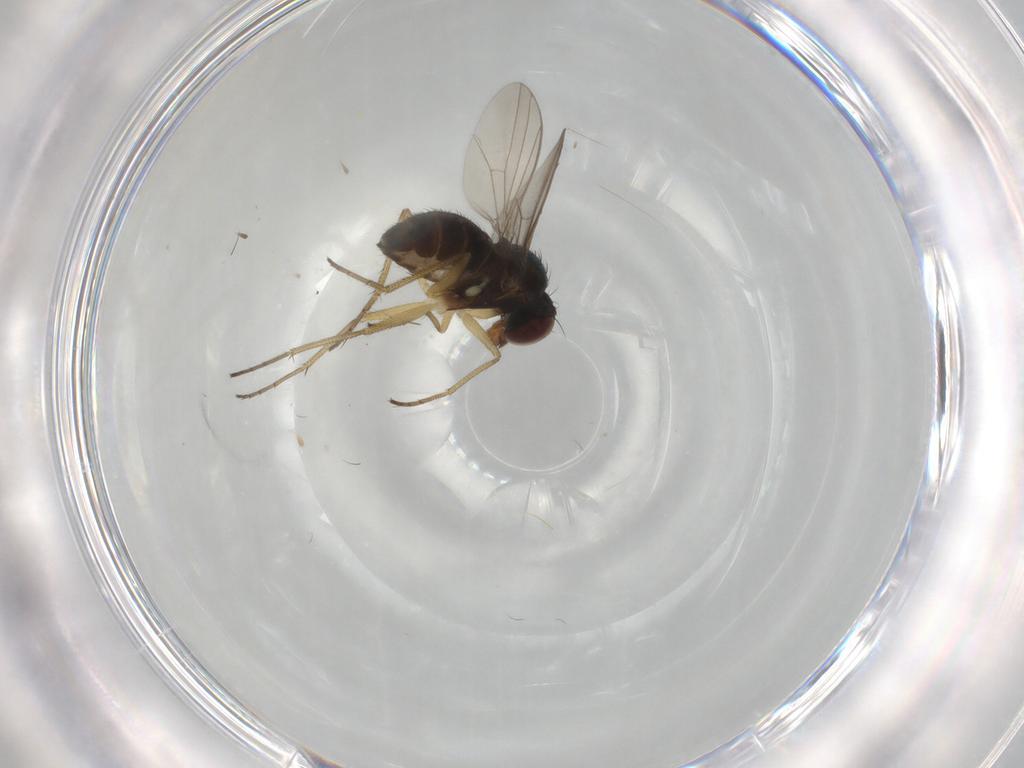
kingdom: Animalia
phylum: Arthropoda
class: Insecta
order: Diptera
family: Dolichopodidae
